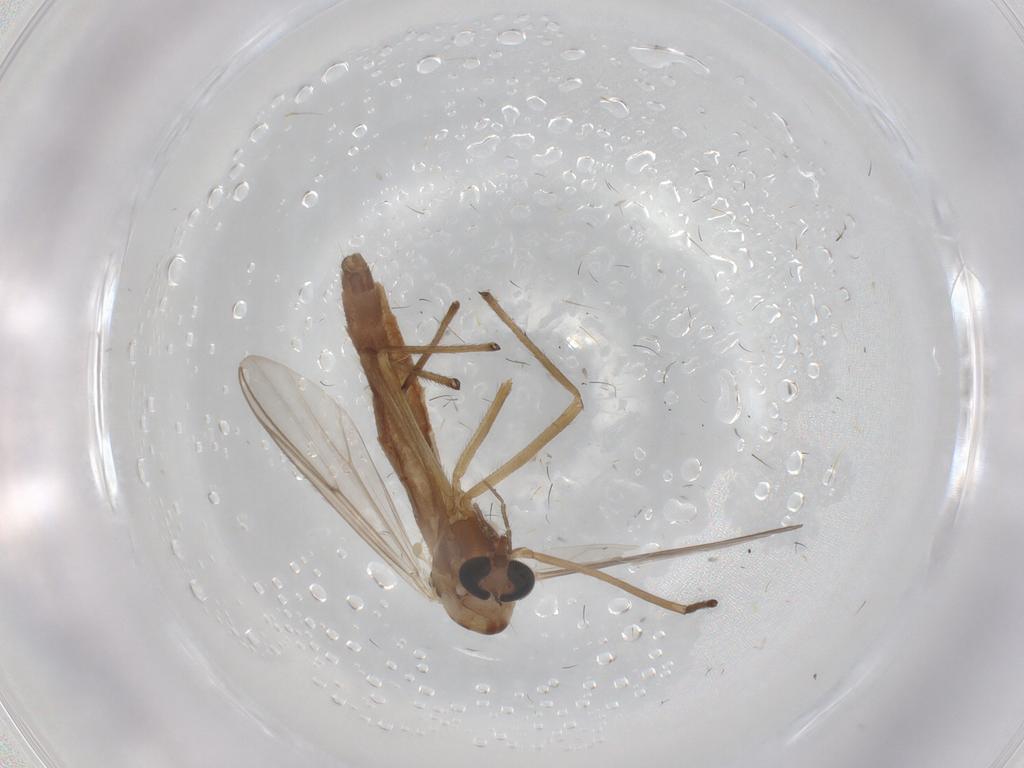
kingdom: Animalia
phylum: Arthropoda
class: Insecta
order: Diptera
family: Chironomidae
